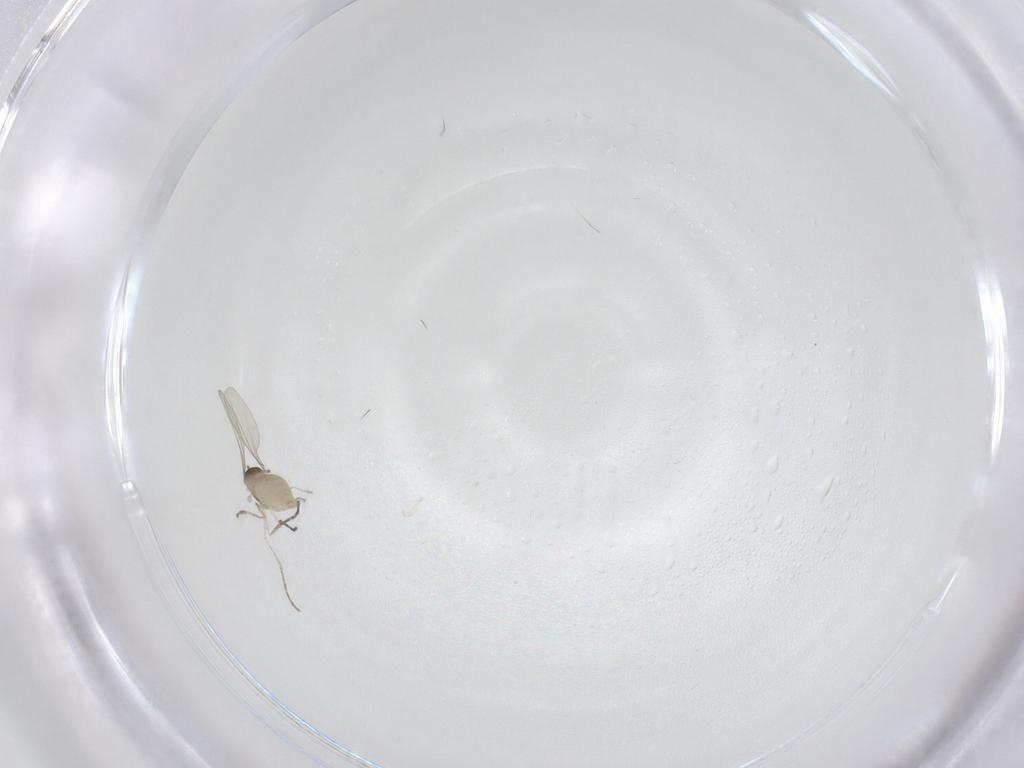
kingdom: Animalia
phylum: Arthropoda
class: Insecta
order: Diptera
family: Cecidomyiidae
